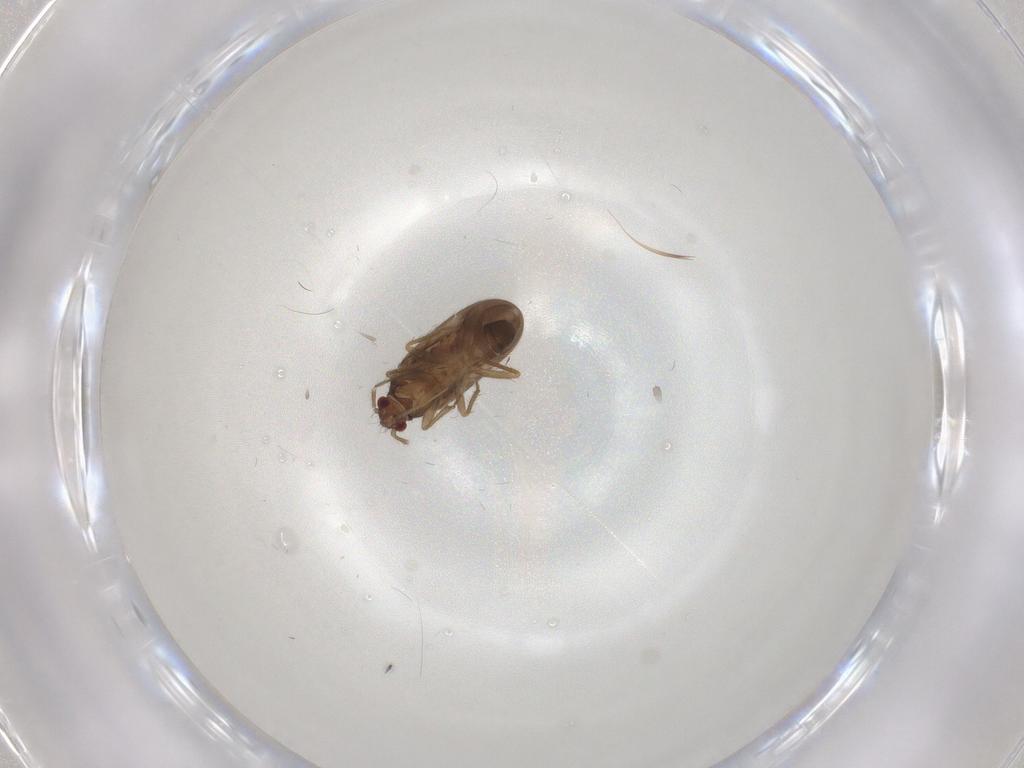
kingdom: Animalia
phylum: Arthropoda
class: Insecta
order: Hemiptera
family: Ceratocombidae
